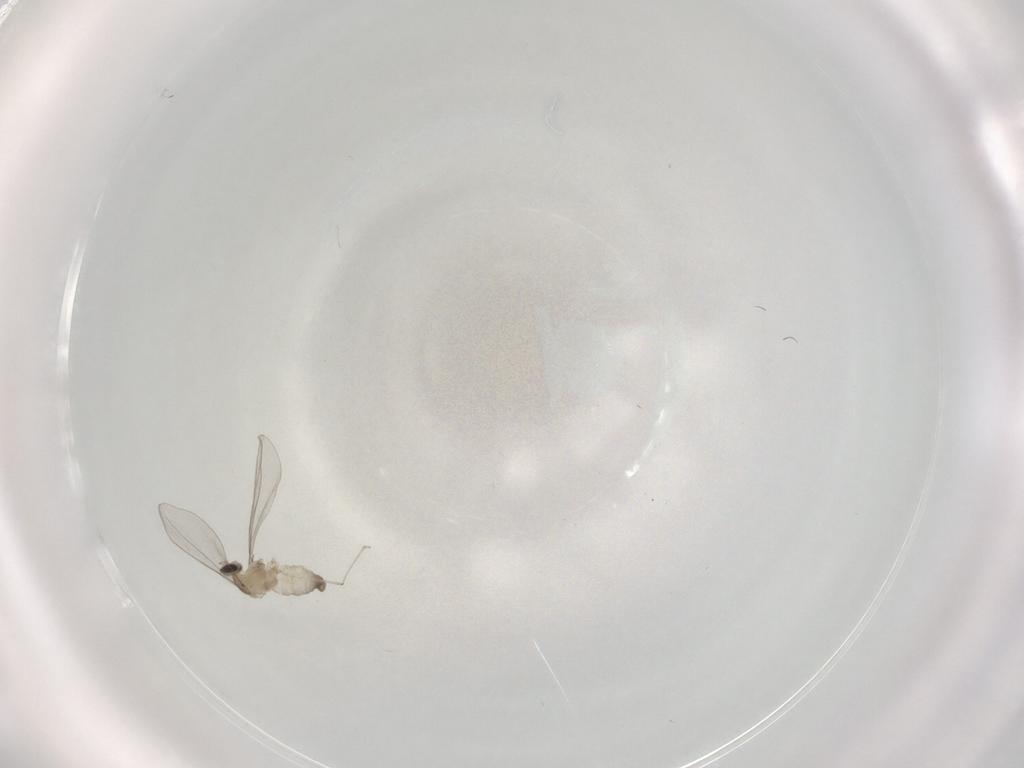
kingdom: Animalia
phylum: Arthropoda
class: Insecta
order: Diptera
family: Cecidomyiidae
